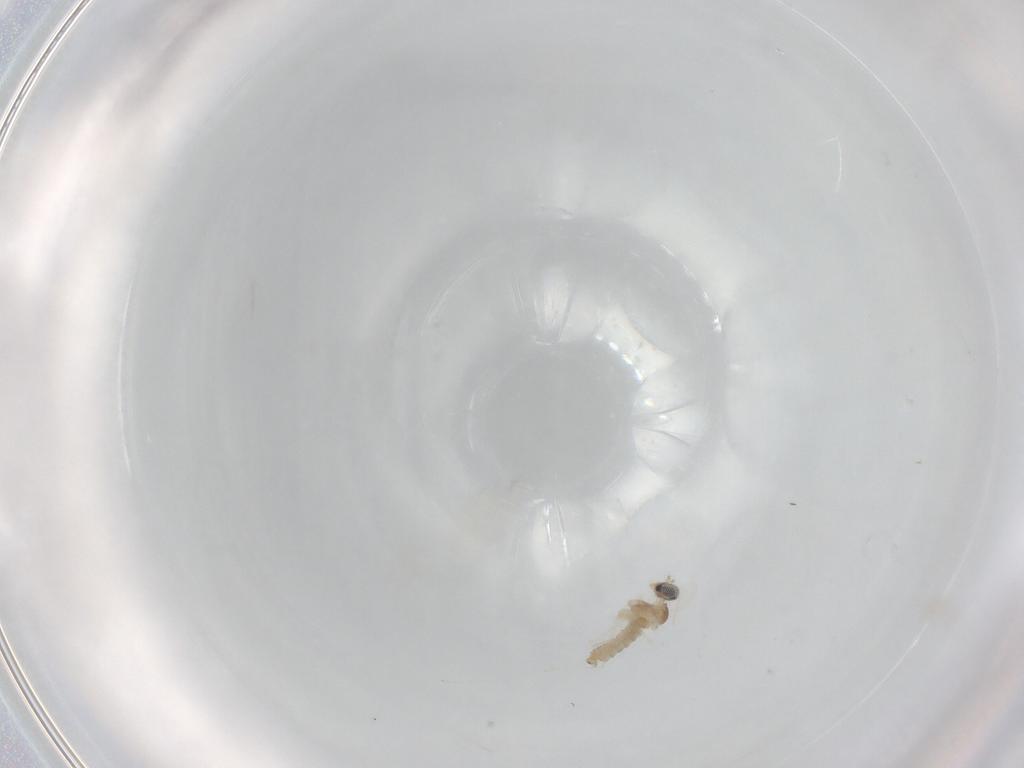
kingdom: Animalia
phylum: Arthropoda
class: Insecta
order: Diptera
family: Cecidomyiidae
